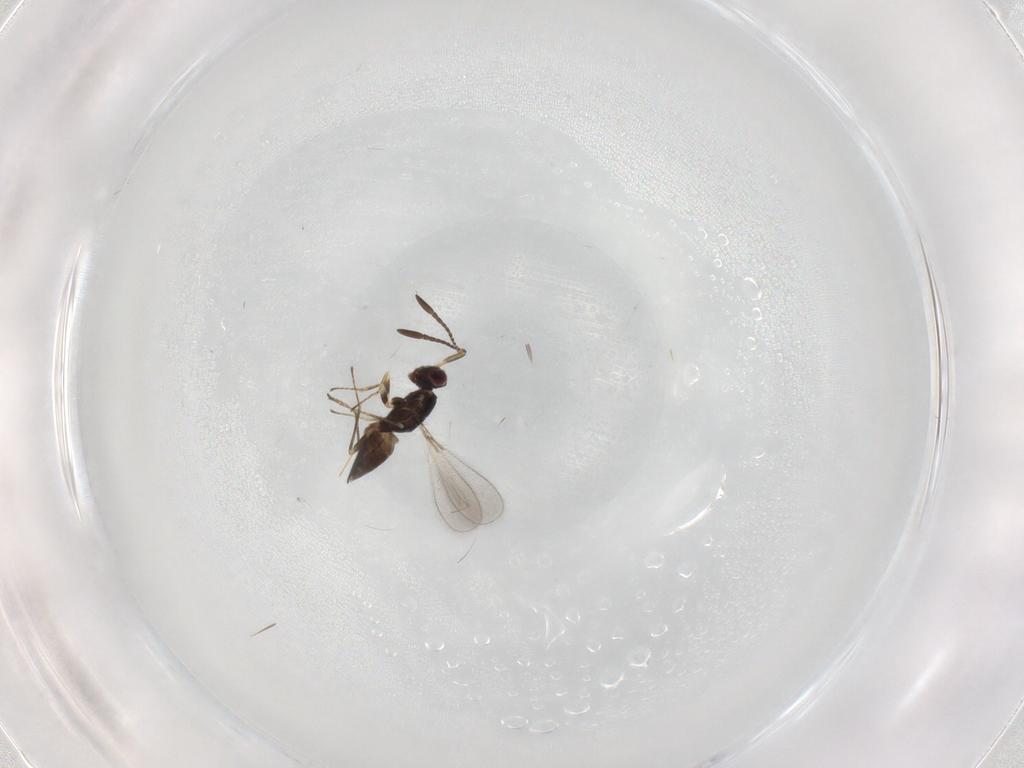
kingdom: Animalia
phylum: Arthropoda
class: Insecta
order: Hymenoptera
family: Mymaridae
